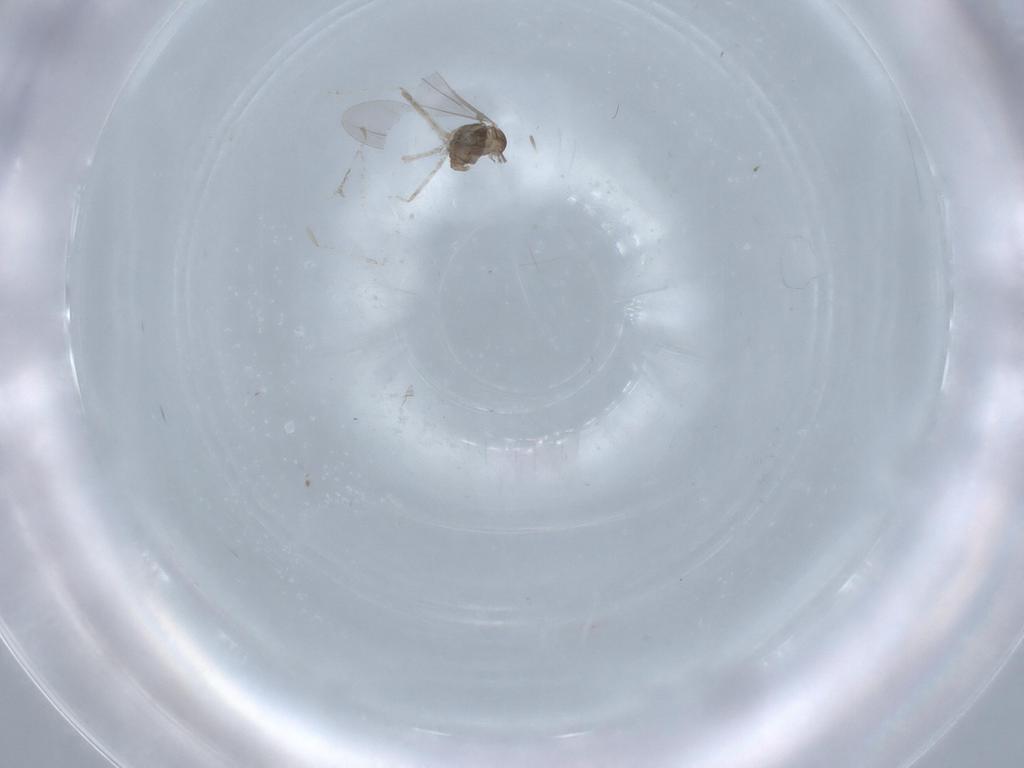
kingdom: Animalia
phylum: Arthropoda
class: Insecta
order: Diptera
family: Cecidomyiidae
